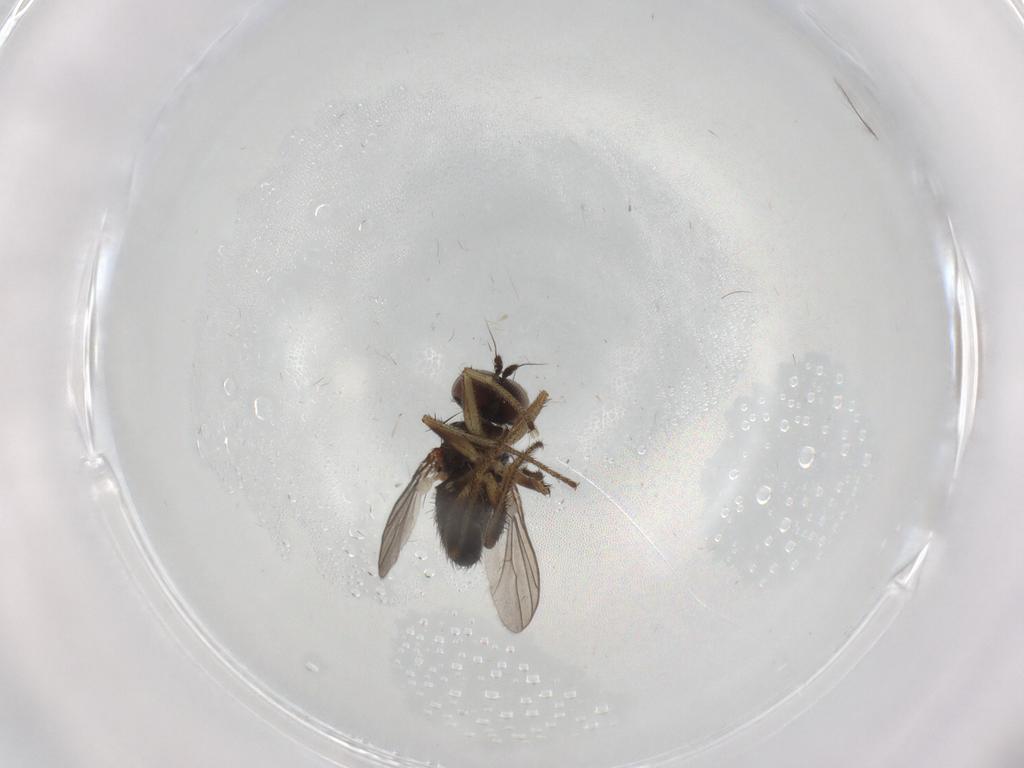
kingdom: Animalia
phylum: Arthropoda
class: Insecta
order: Diptera
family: Dolichopodidae
